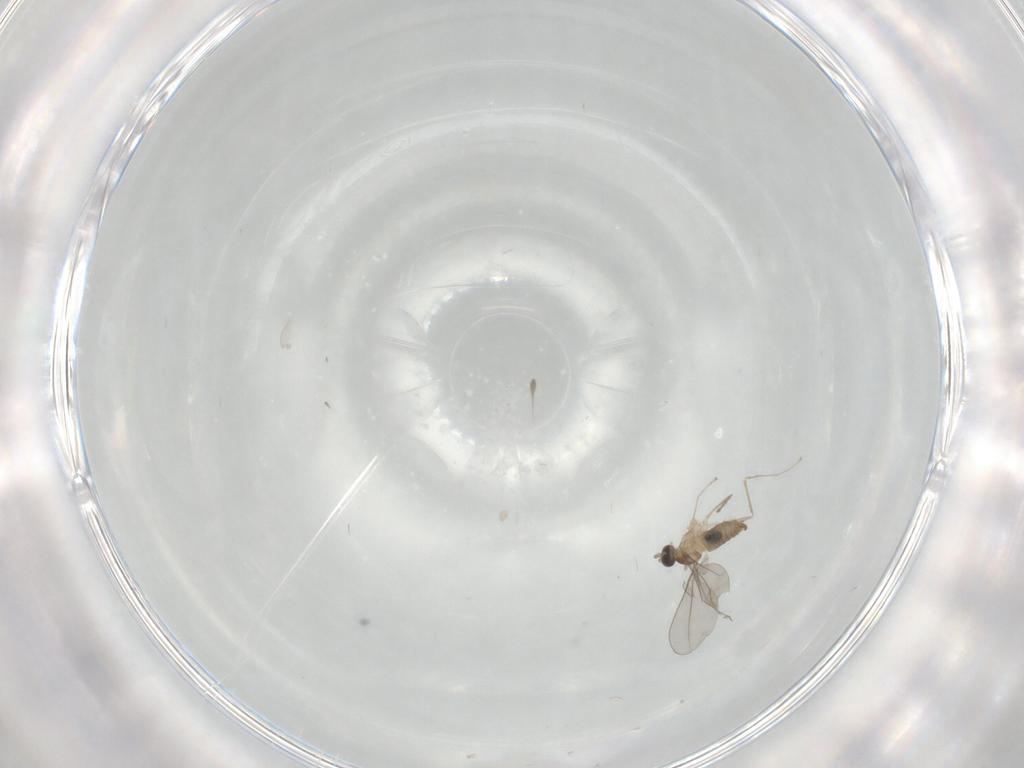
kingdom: Animalia
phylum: Arthropoda
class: Insecta
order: Diptera
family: Cecidomyiidae
